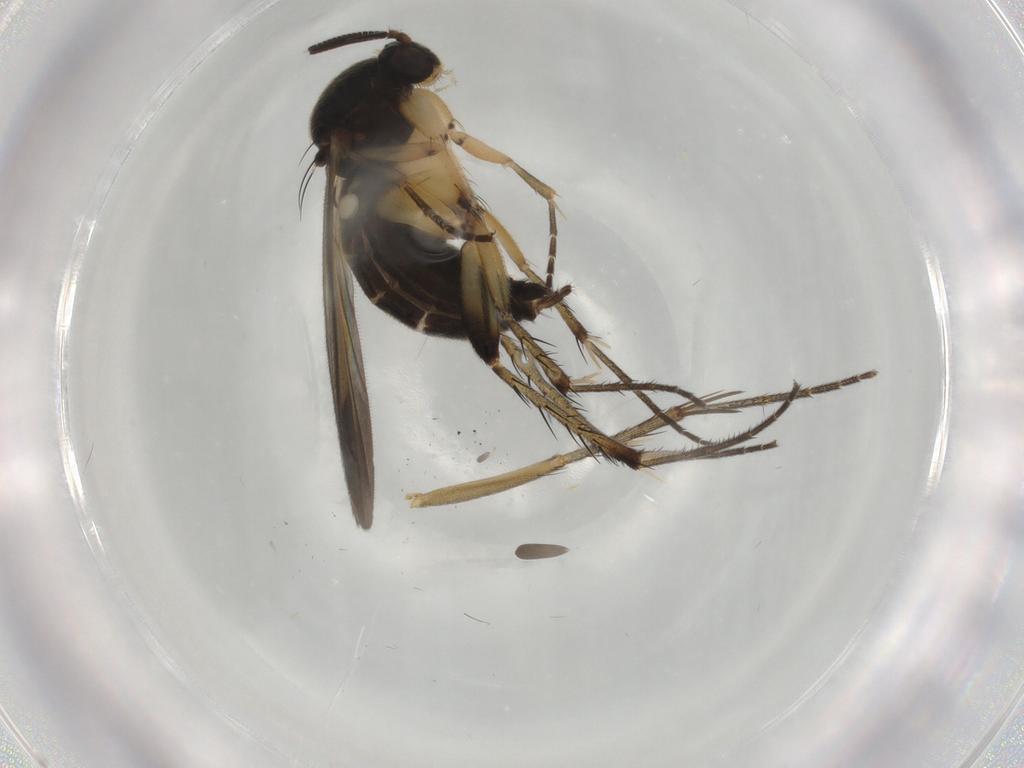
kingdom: Animalia
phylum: Arthropoda
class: Insecta
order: Diptera
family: Mycetophilidae
